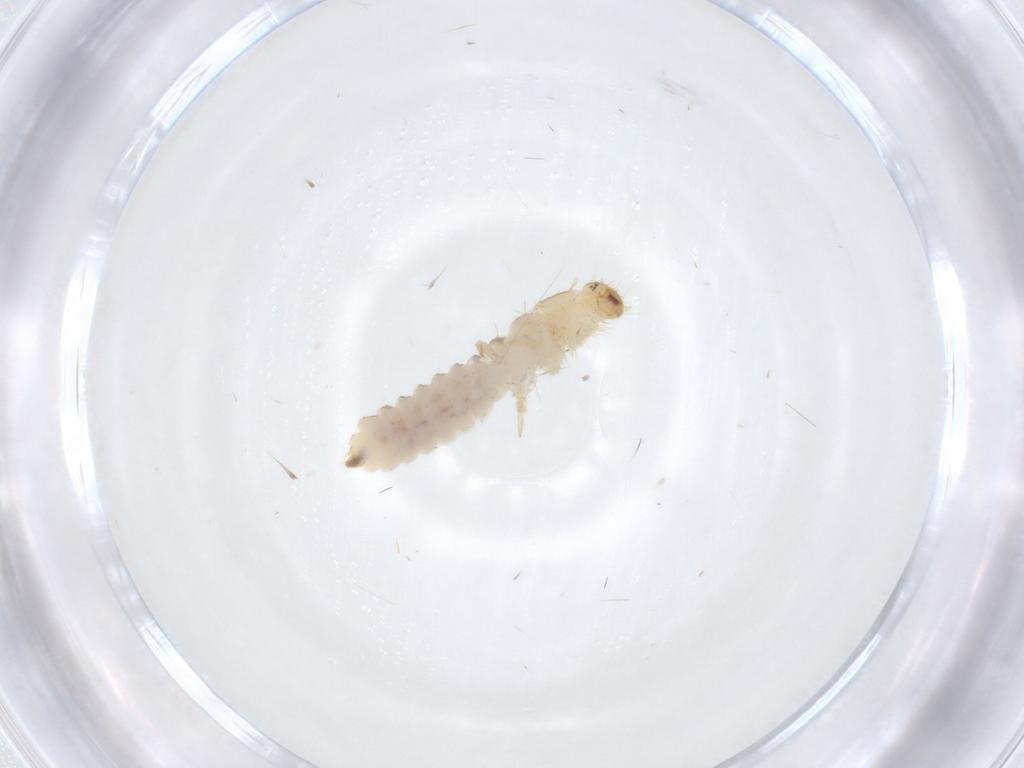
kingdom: Animalia
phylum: Arthropoda
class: Insecta
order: Coleoptera
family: Dermestidae
